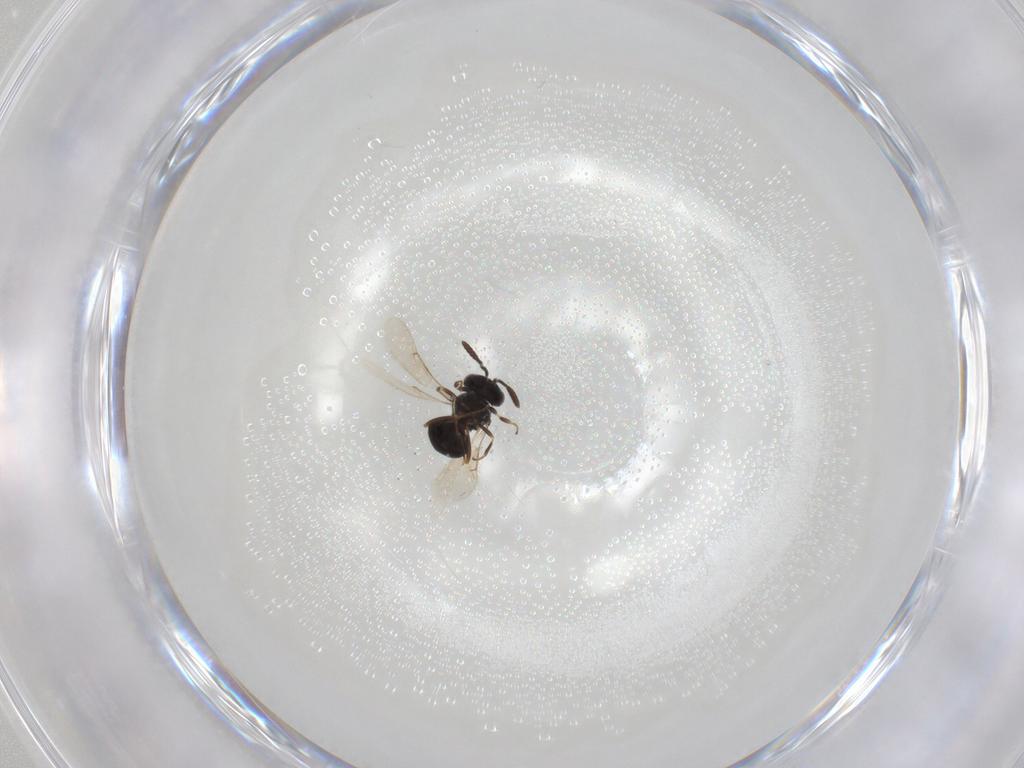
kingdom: Animalia
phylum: Arthropoda
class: Insecta
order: Hymenoptera
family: Scelionidae
